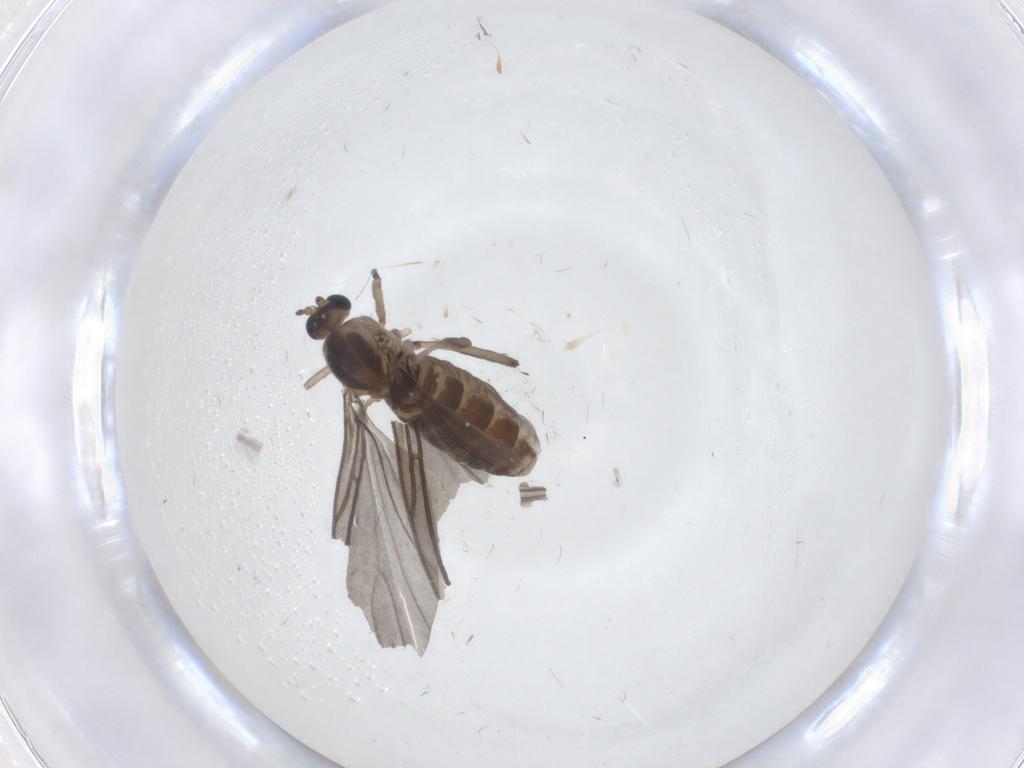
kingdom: Animalia
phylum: Arthropoda
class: Insecta
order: Diptera
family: Sciaridae
